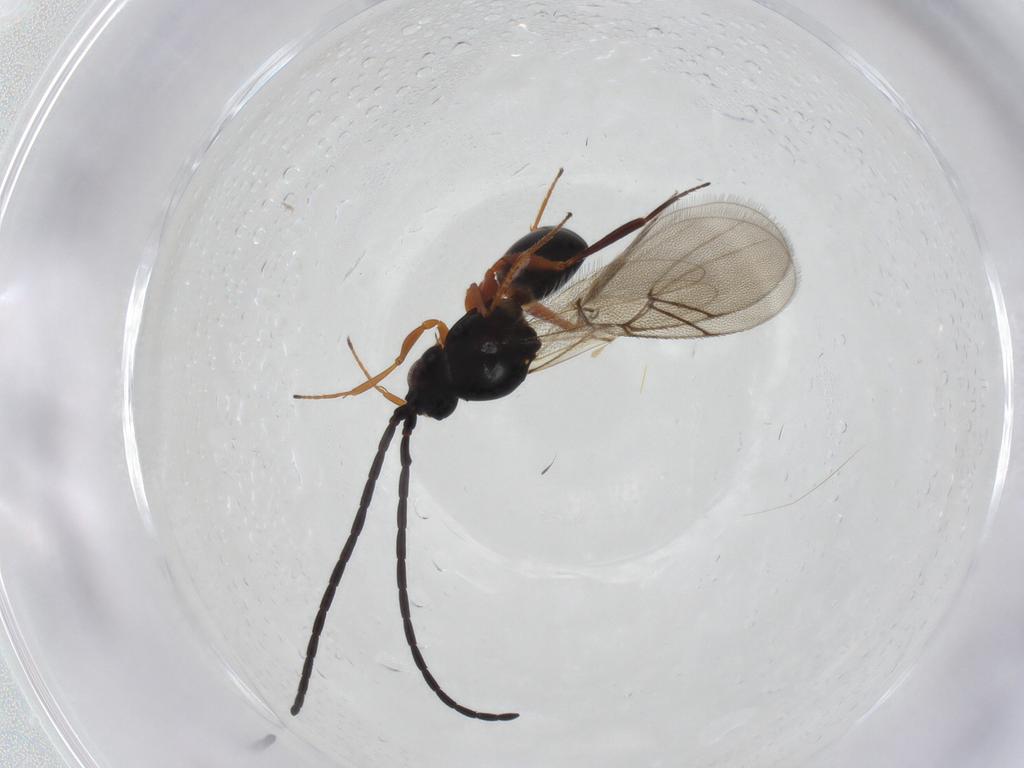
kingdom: Animalia
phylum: Arthropoda
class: Insecta
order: Hymenoptera
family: Figitidae
